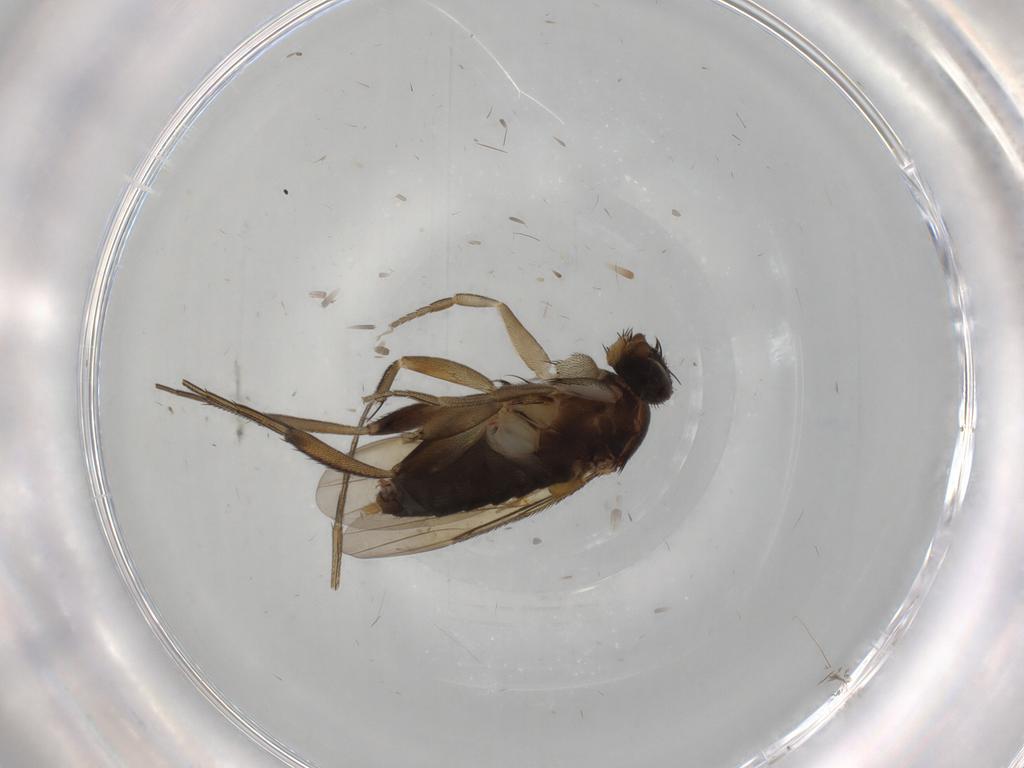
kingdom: Animalia
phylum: Arthropoda
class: Insecta
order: Diptera
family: Phoridae
